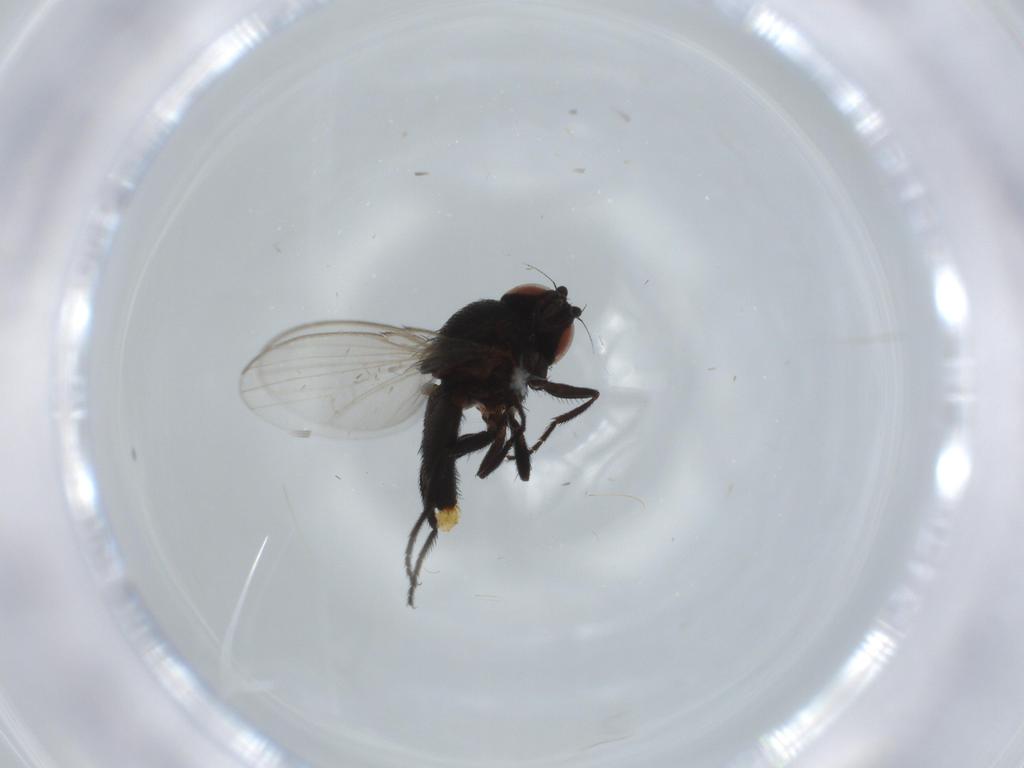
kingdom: Animalia
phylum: Arthropoda
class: Insecta
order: Diptera
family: Milichiidae
